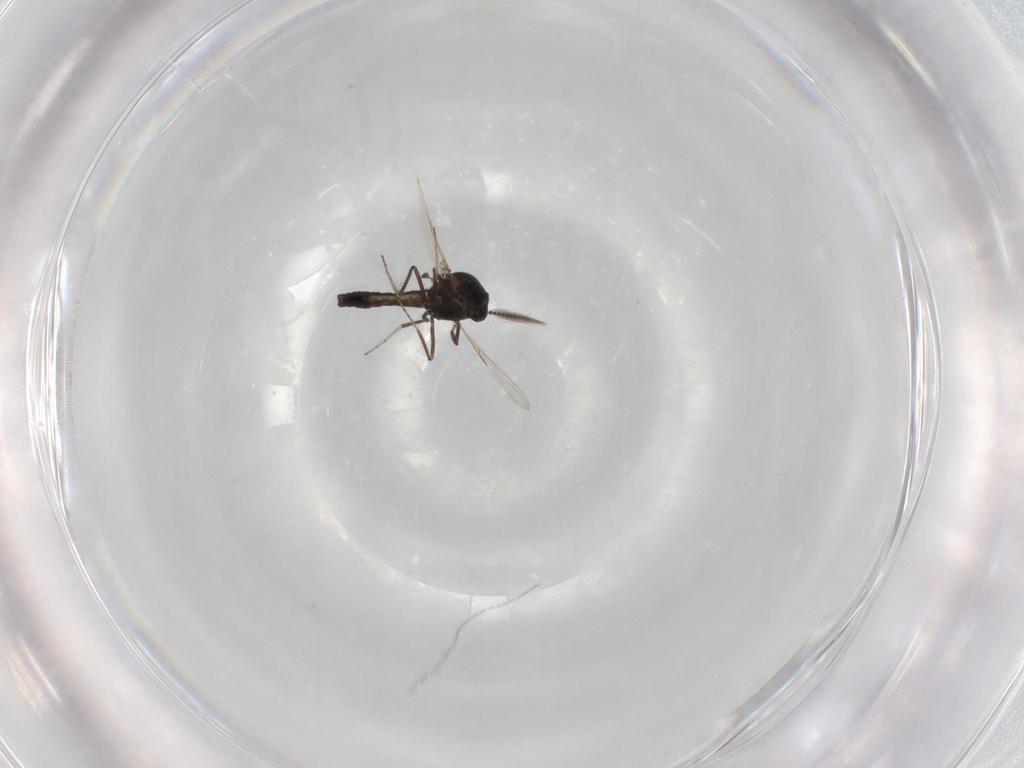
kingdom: Animalia
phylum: Arthropoda
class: Insecta
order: Diptera
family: Ceratopogonidae
